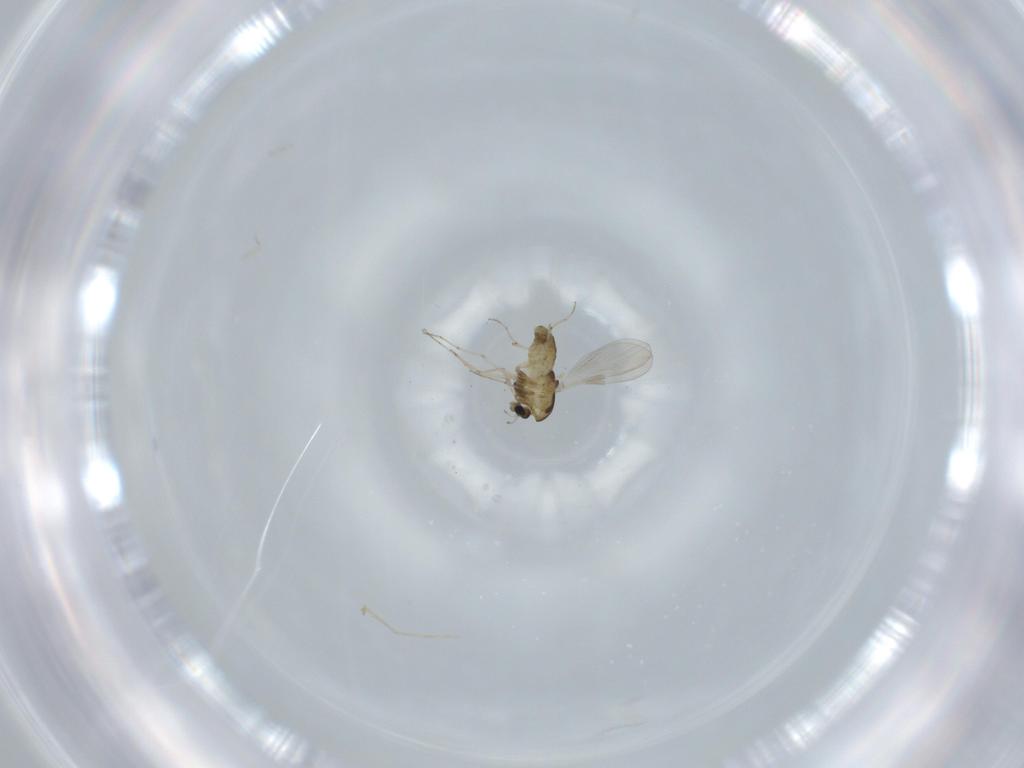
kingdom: Animalia
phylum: Arthropoda
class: Insecta
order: Diptera
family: Chironomidae
